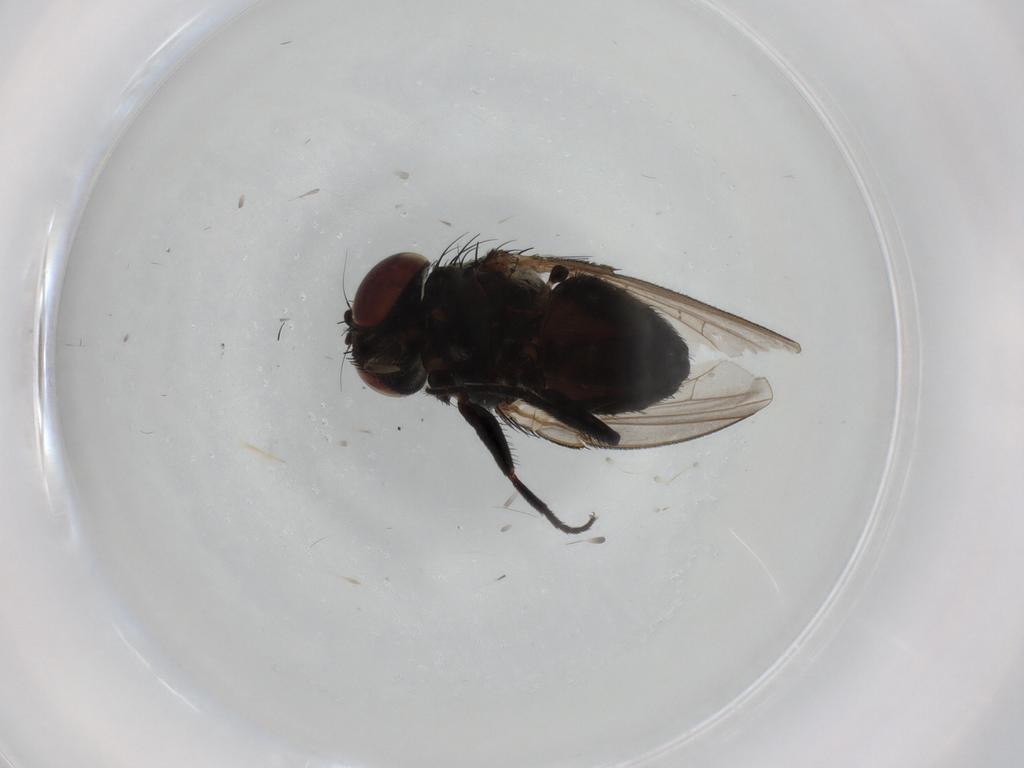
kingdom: Animalia
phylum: Arthropoda
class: Insecta
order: Diptera
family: Milichiidae
